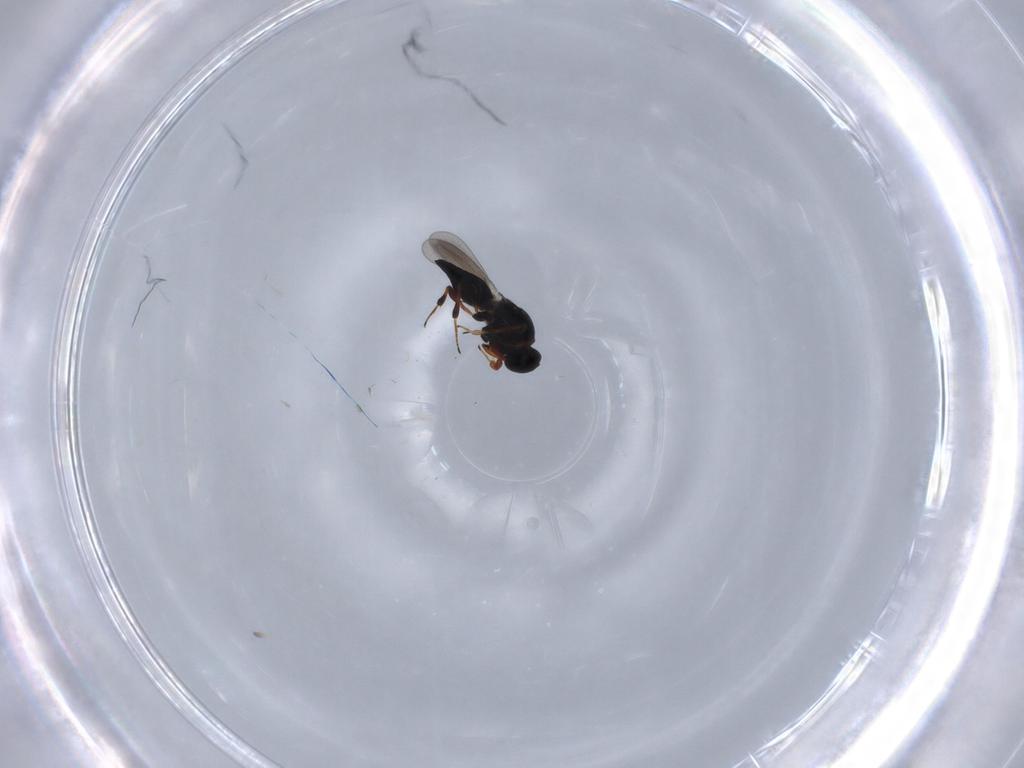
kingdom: Animalia
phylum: Arthropoda
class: Insecta
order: Hymenoptera
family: Platygastridae
